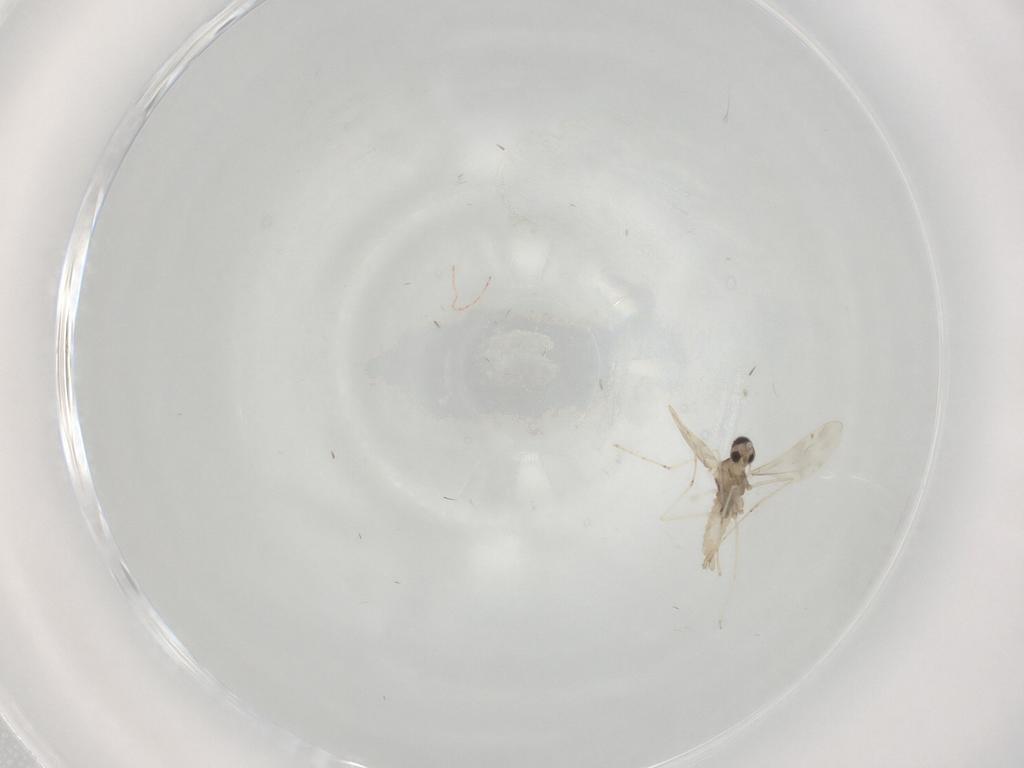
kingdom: Animalia
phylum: Arthropoda
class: Insecta
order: Diptera
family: Cecidomyiidae
